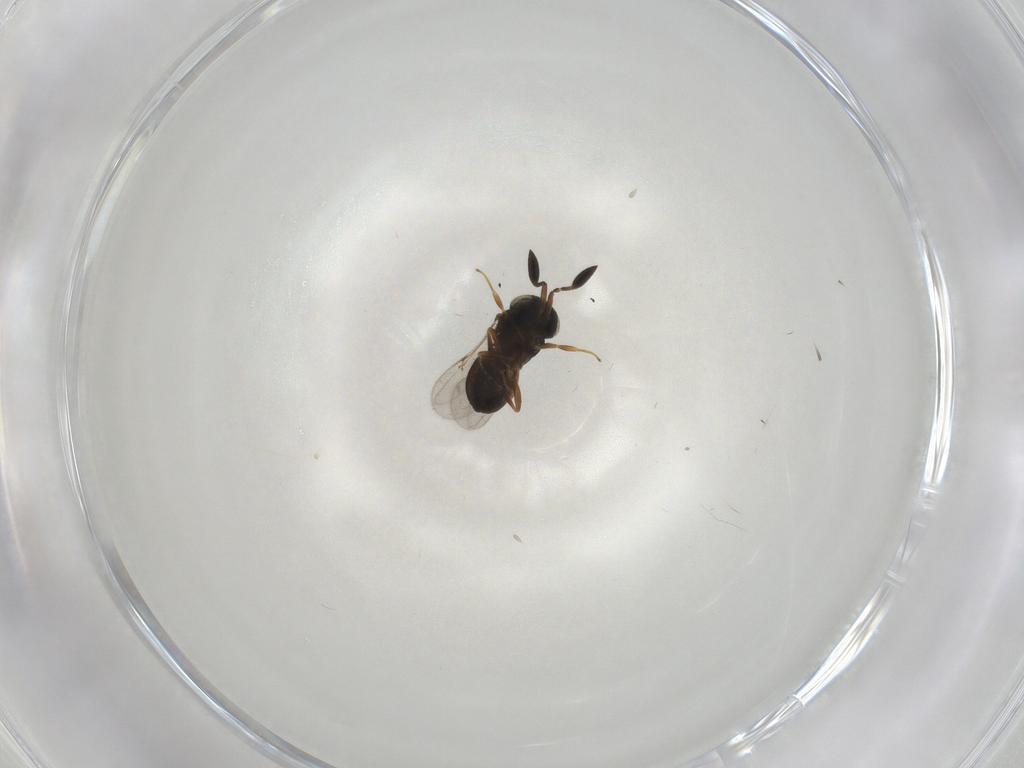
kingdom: Animalia
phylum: Arthropoda
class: Insecta
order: Hymenoptera
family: Scelionidae
